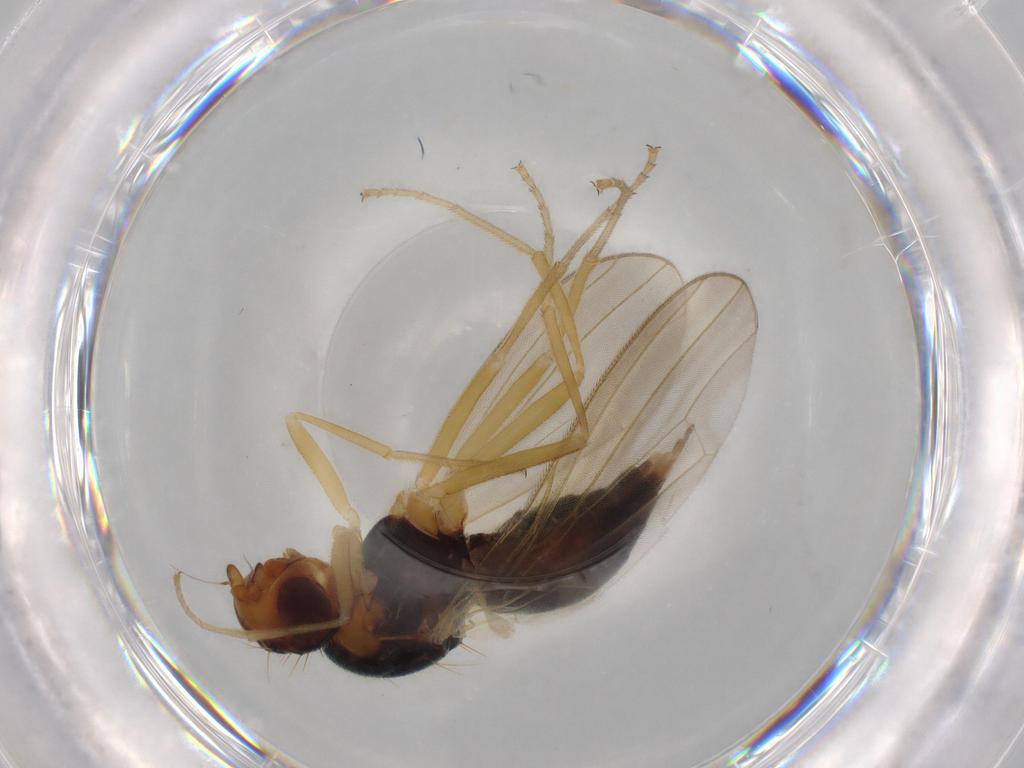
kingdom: Animalia
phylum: Arthropoda
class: Insecta
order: Diptera
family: Psilidae
